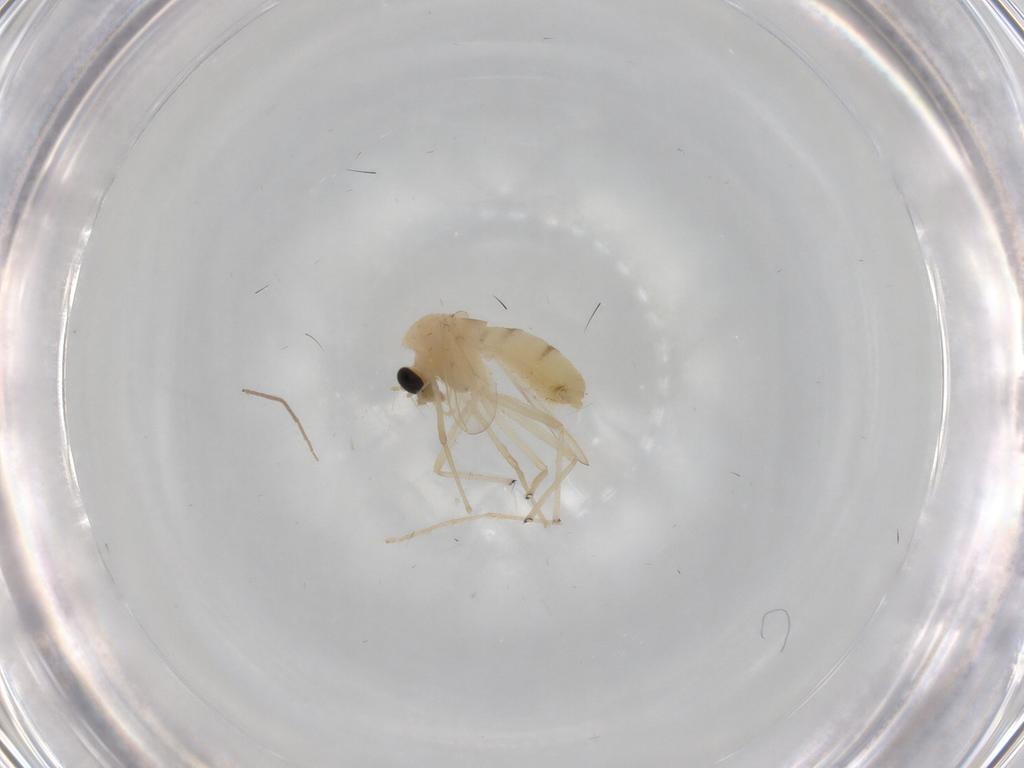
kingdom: Animalia
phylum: Arthropoda
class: Insecta
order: Diptera
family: Chironomidae
